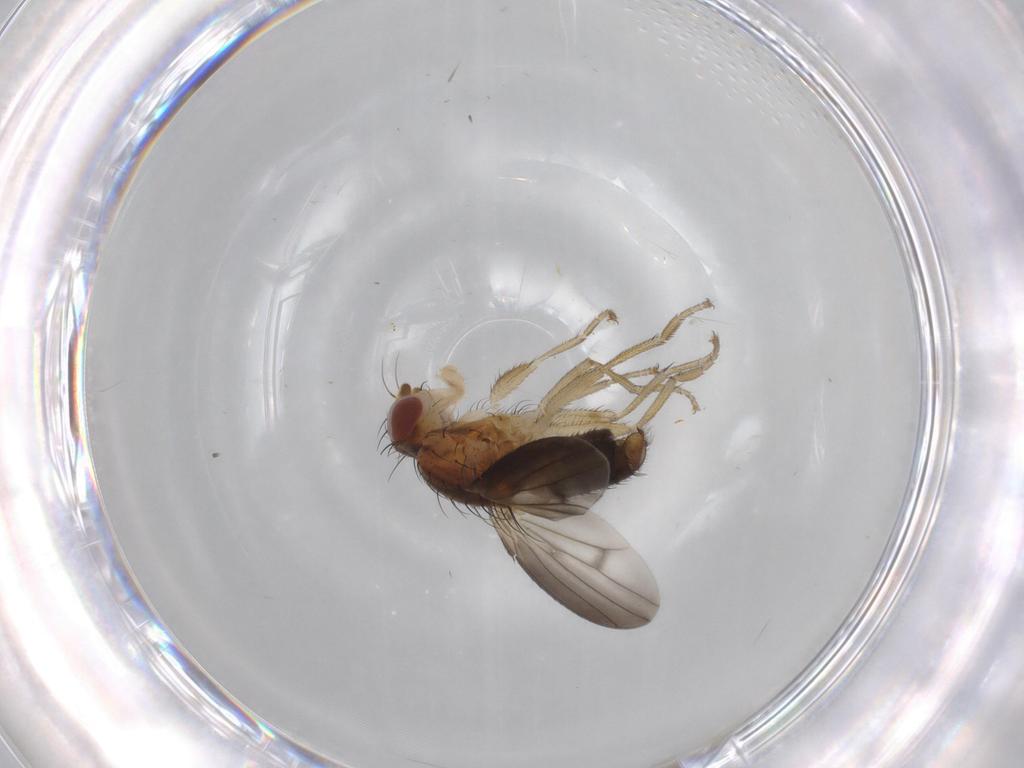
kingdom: Animalia
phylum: Arthropoda
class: Insecta
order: Diptera
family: Heleomyzidae
